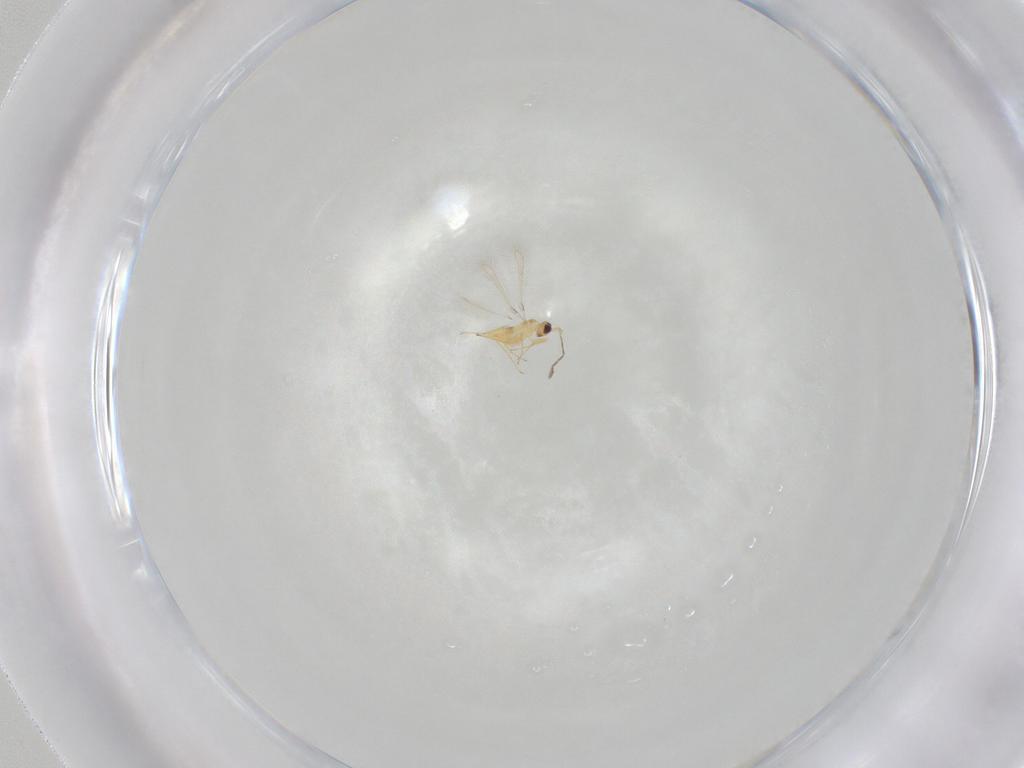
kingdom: Animalia
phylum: Arthropoda
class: Insecta
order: Hymenoptera
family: Mymaridae
